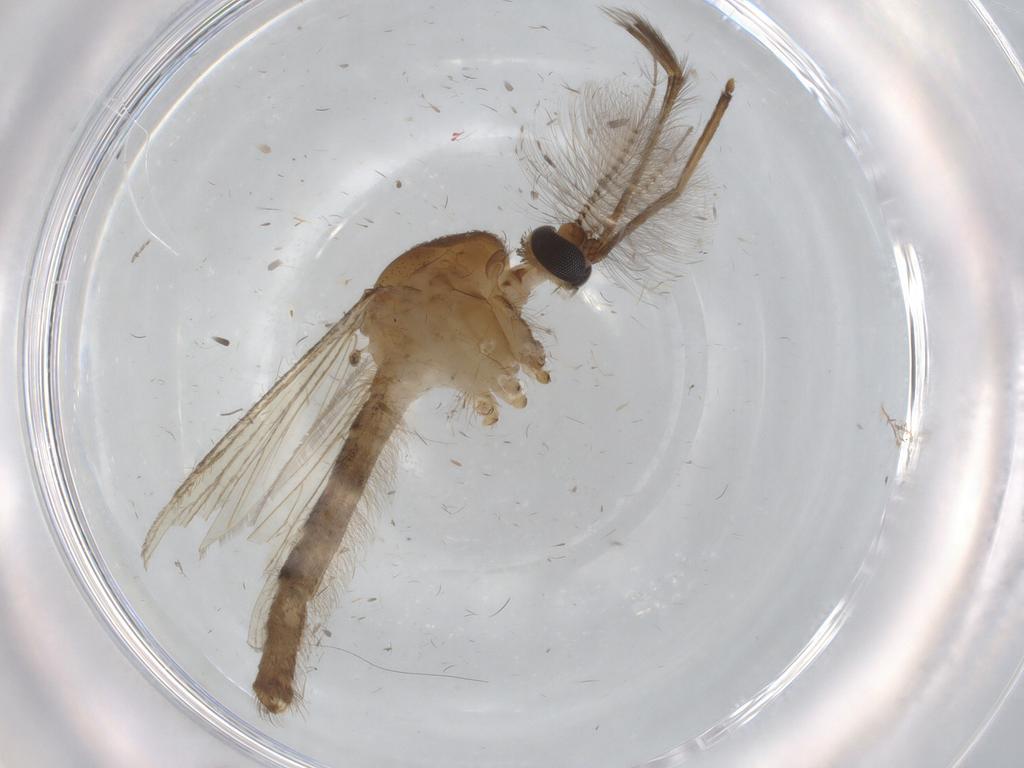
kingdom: Animalia
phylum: Arthropoda
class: Insecta
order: Diptera
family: Culicidae
